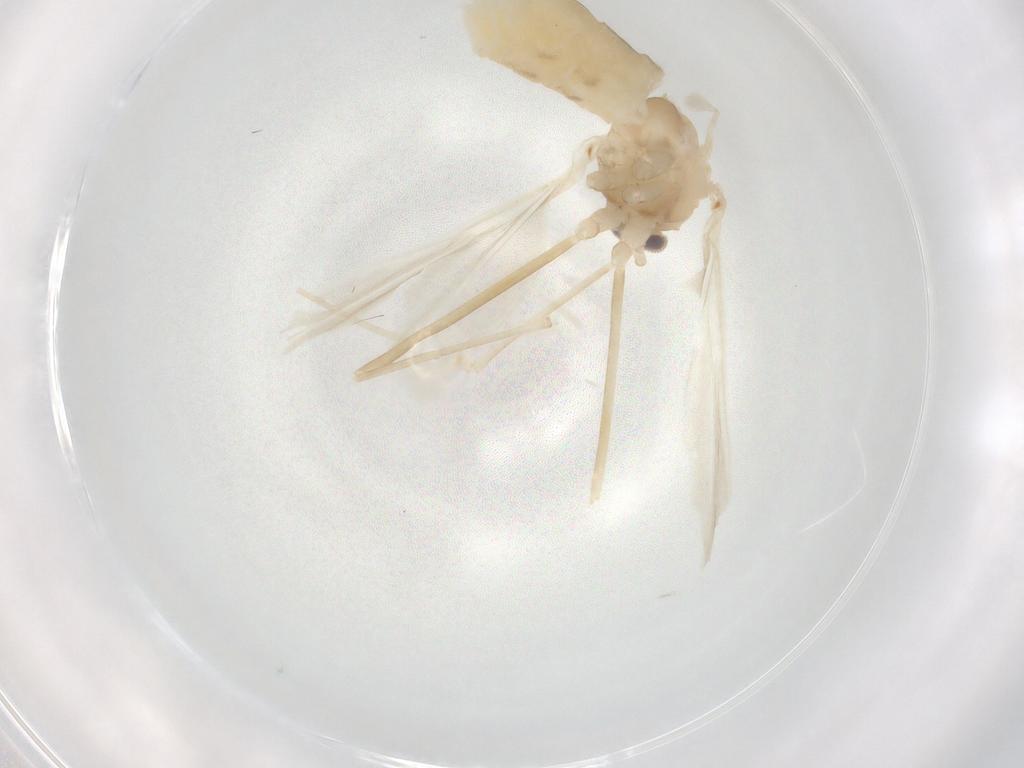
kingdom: Animalia
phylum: Arthropoda
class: Insecta
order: Diptera
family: Cecidomyiidae
